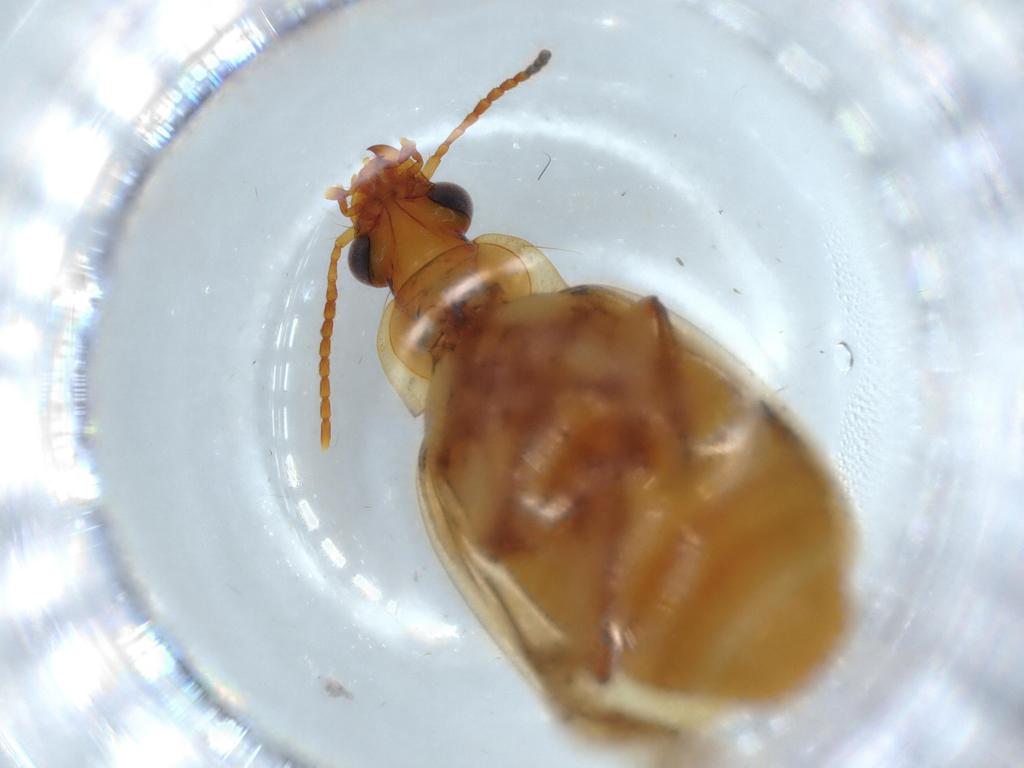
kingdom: Animalia
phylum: Arthropoda
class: Insecta
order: Coleoptera
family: Carabidae
